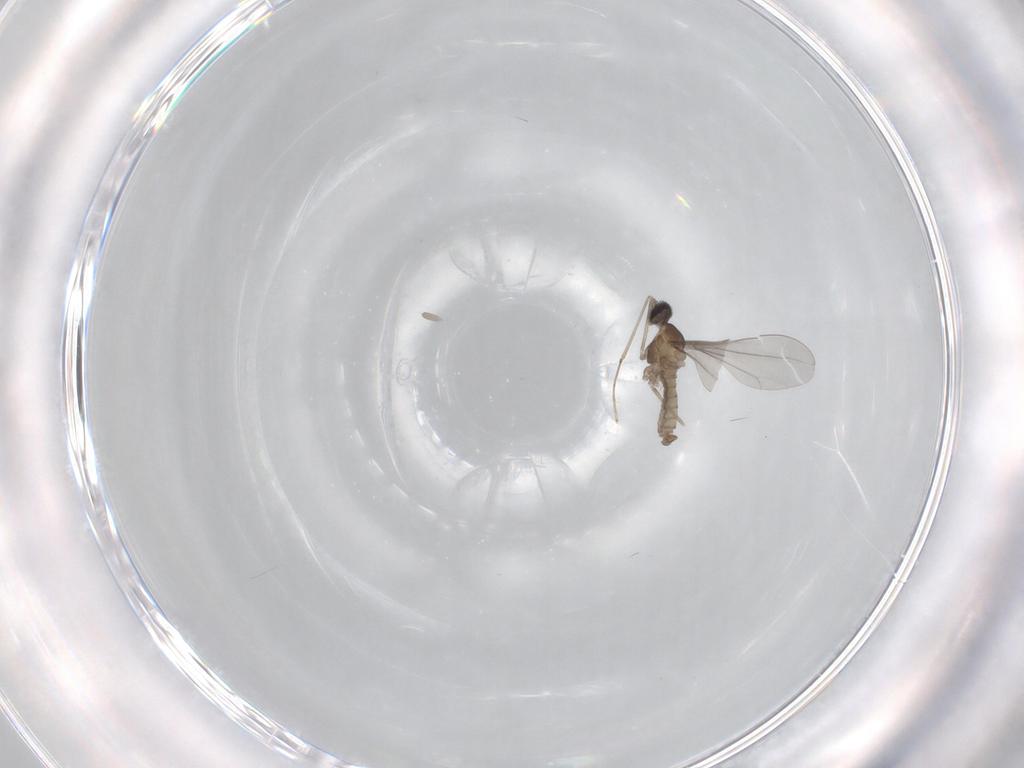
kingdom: Animalia
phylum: Arthropoda
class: Insecta
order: Diptera
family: Cecidomyiidae
